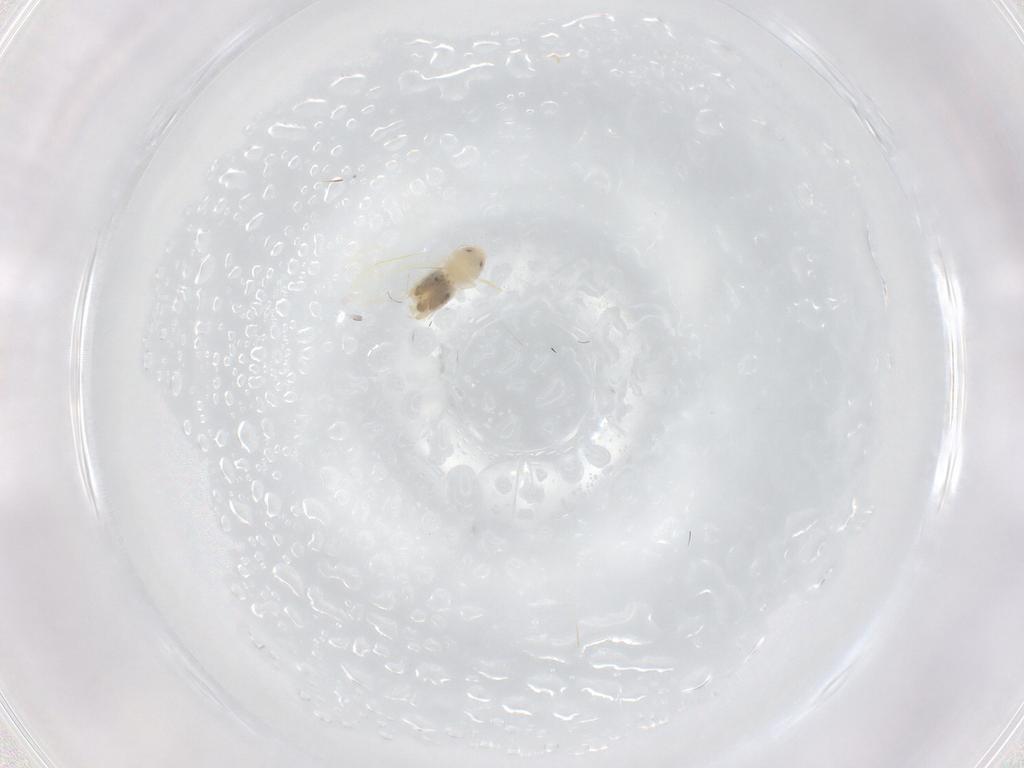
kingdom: Animalia
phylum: Arthropoda
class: Insecta
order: Hemiptera
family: Aleyrodidae
